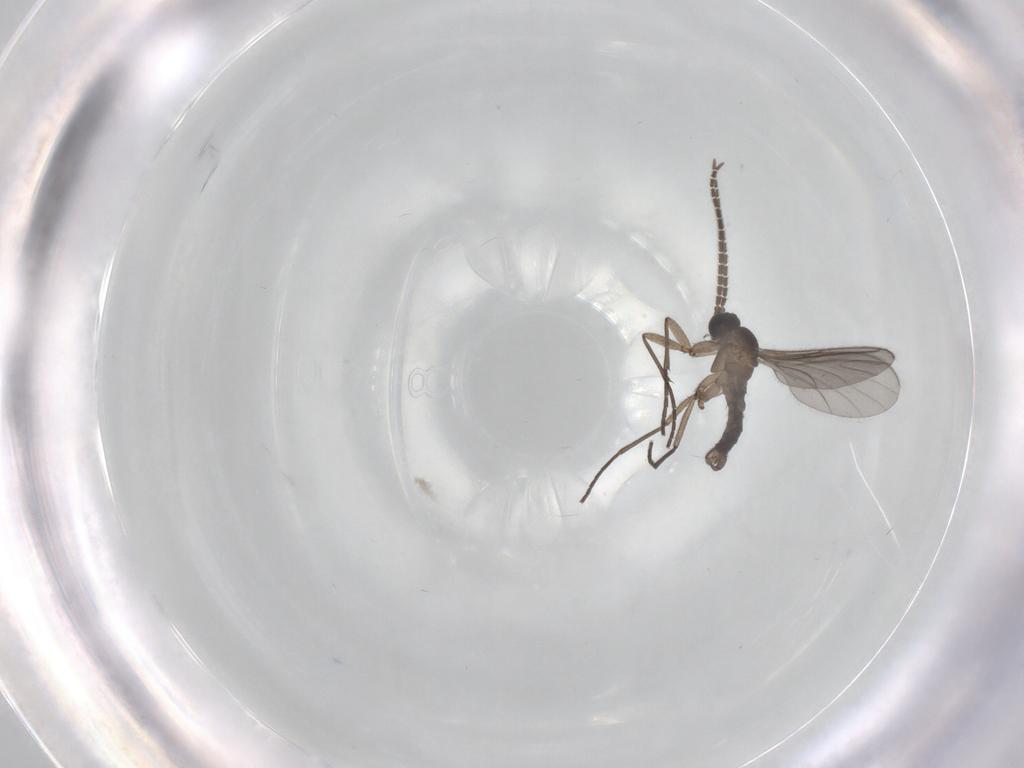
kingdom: Animalia
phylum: Arthropoda
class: Insecta
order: Diptera
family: Sciaridae
